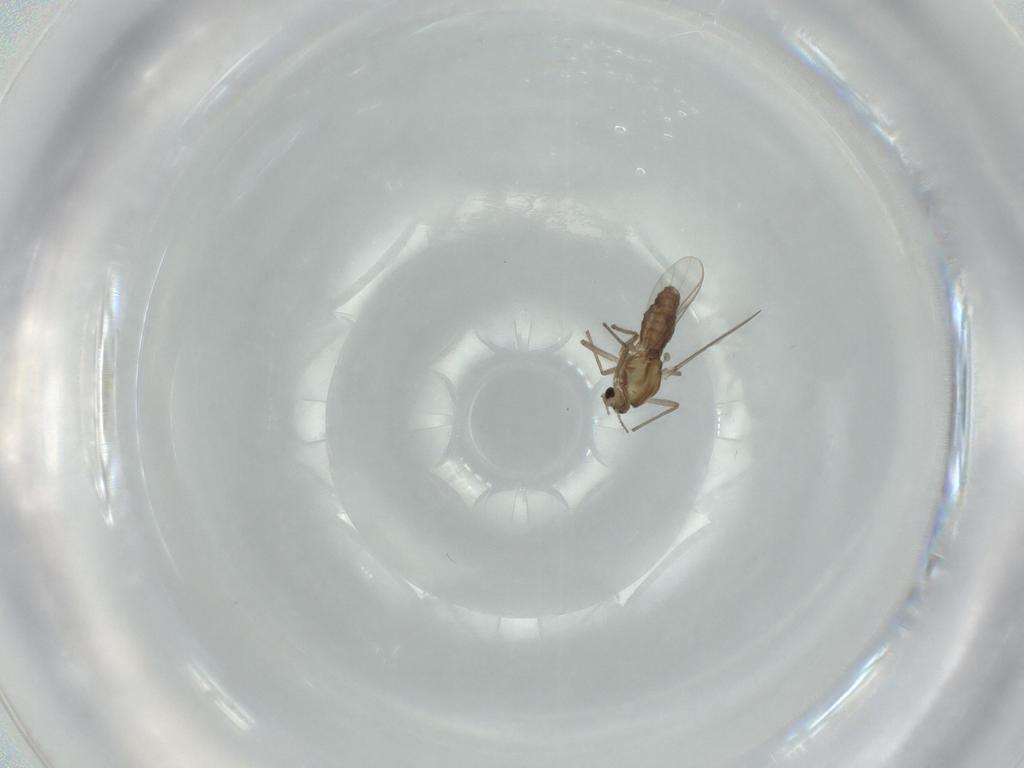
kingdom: Animalia
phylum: Arthropoda
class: Insecta
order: Diptera
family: Chironomidae
